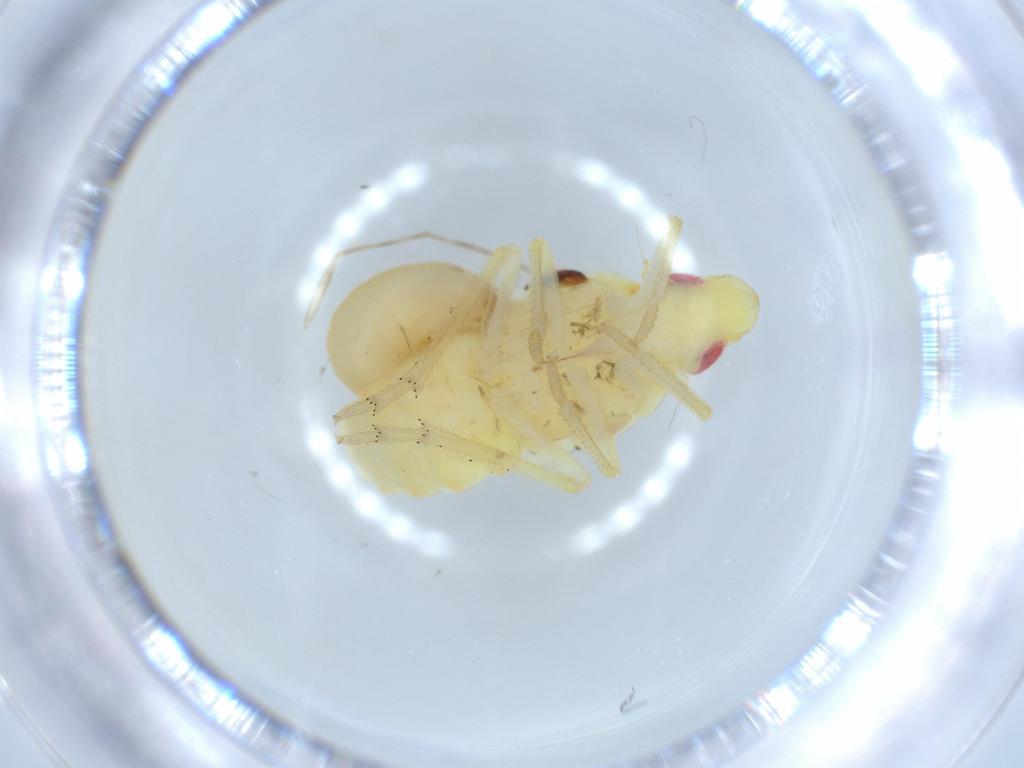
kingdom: Animalia
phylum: Arthropoda
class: Insecta
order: Hemiptera
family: Tropiduchidae
